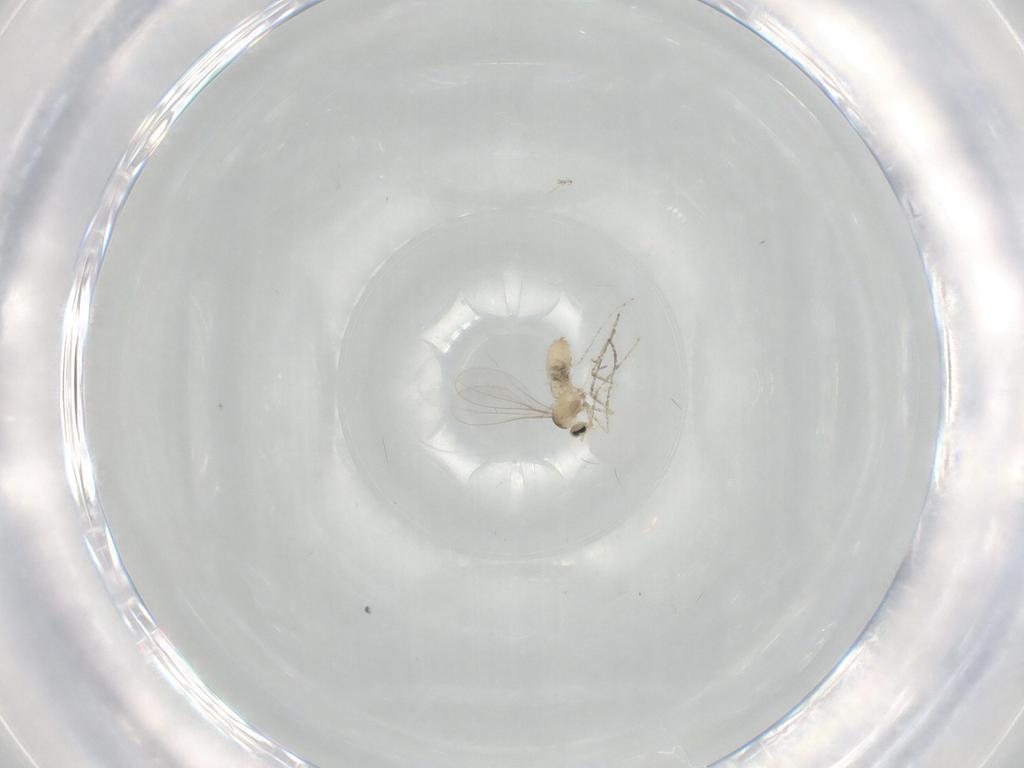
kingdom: Animalia
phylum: Arthropoda
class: Insecta
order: Diptera
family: Cecidomyiidae
